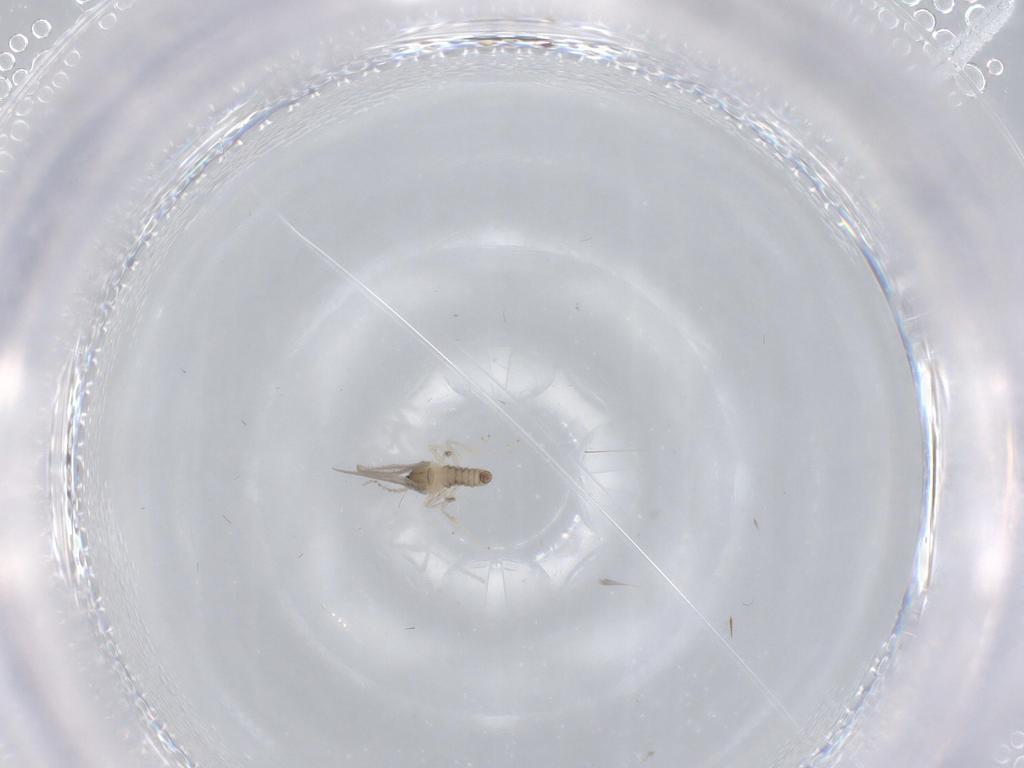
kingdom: Animalia
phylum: Arthropoda
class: Insecta
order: Diptera
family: Cecidomyiidae
